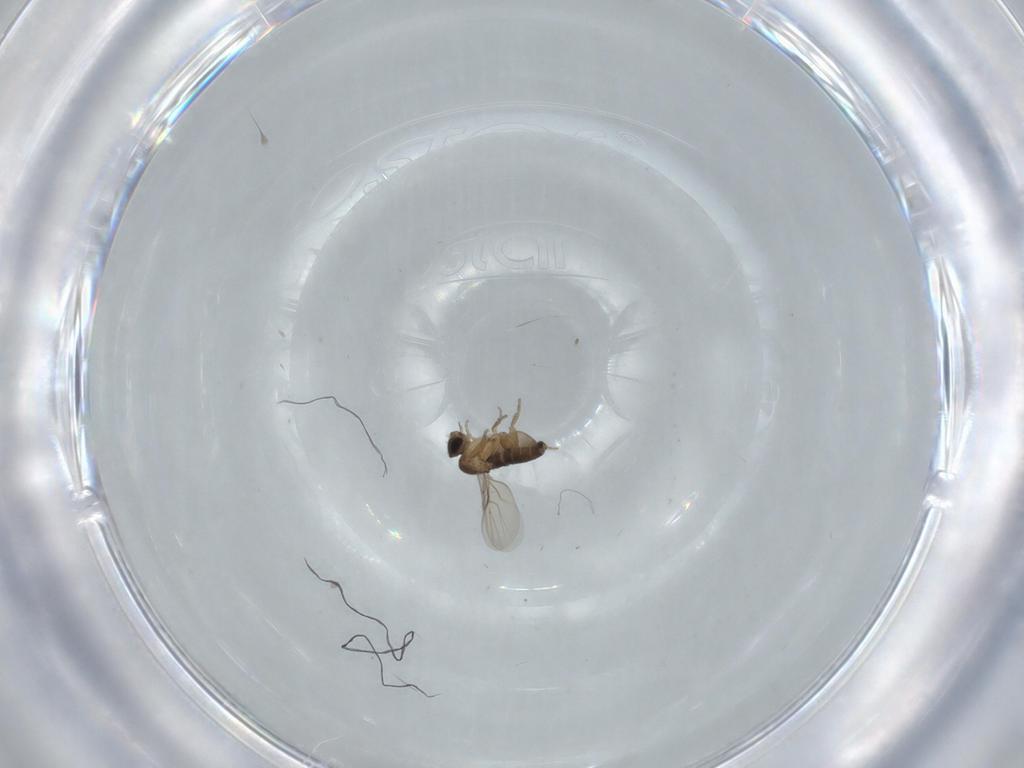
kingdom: Animalia
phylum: Arthropoda
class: Insecta
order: Diptera
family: Phoridae
